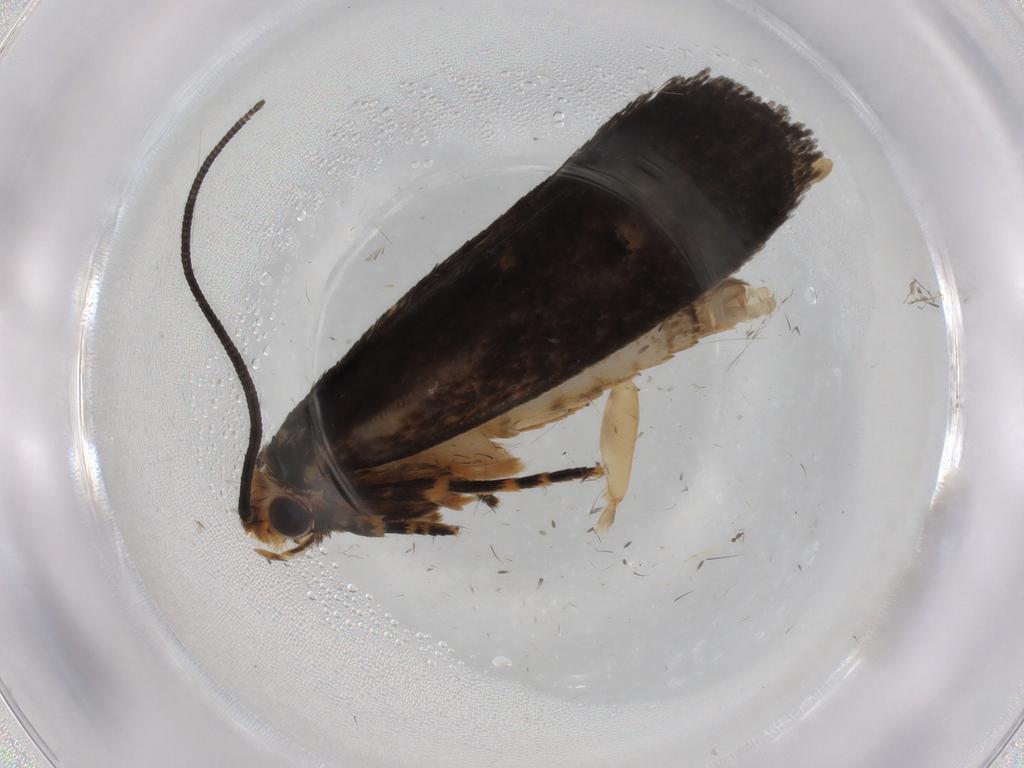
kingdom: Animalia
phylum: Arthropoda
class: Insecta
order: Lepidoptera
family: Tineidae
